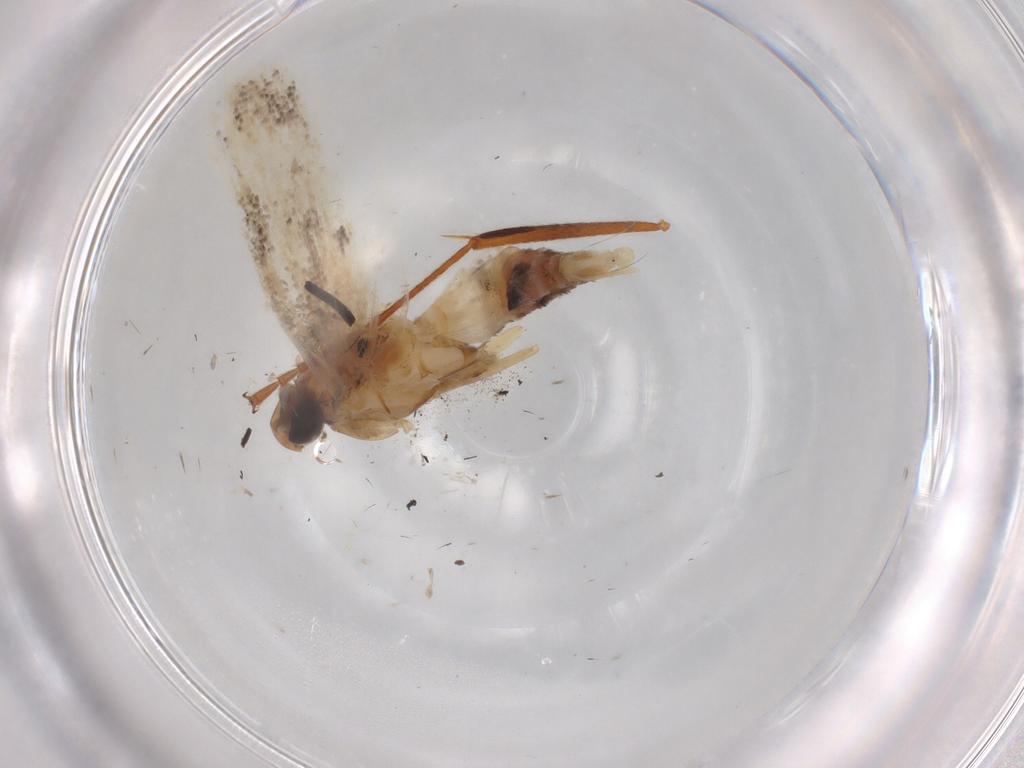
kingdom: Animalia
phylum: Arthropoda
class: Insecta
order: Lepidoptera
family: Gelechiidae
